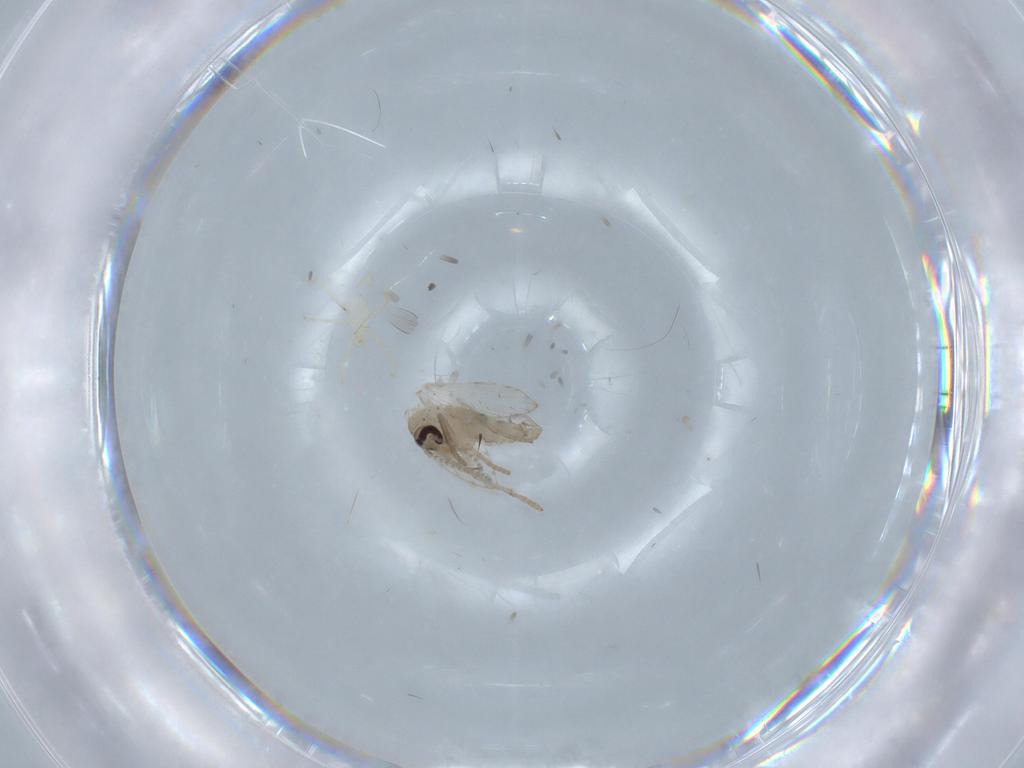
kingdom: Animalia
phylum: Arthropoda
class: Insecta
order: Diptera
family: Psychodidae
